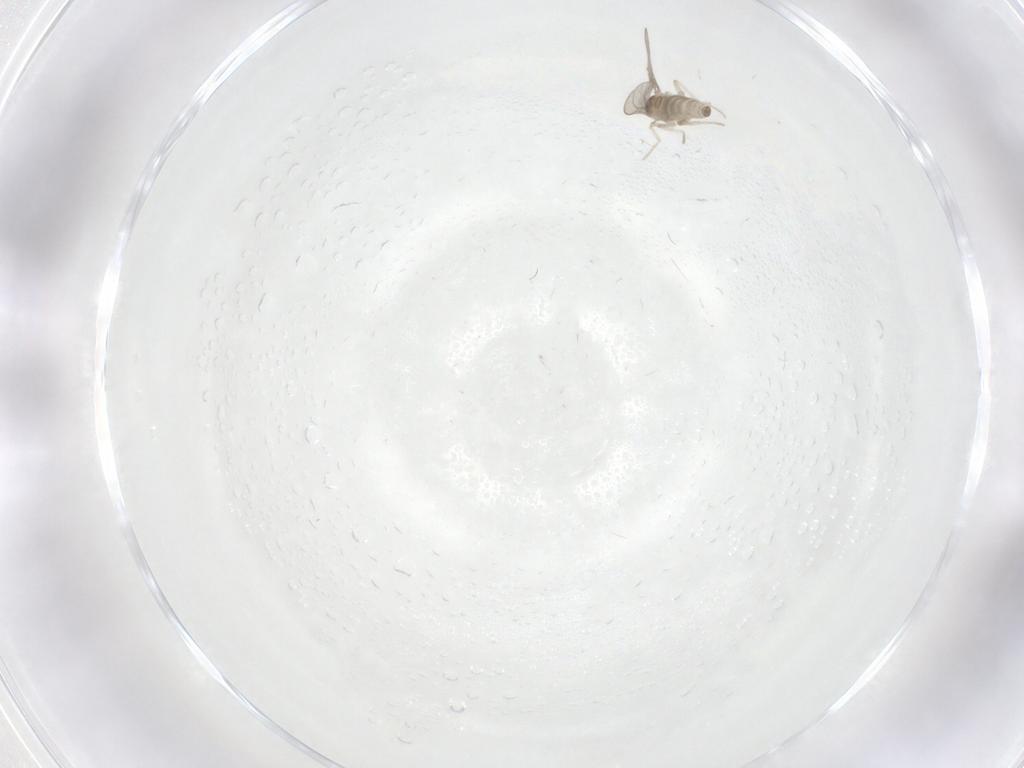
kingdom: Animalia
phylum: Arthropoda
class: Insecta
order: Diptera
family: Cecidomyiidae
